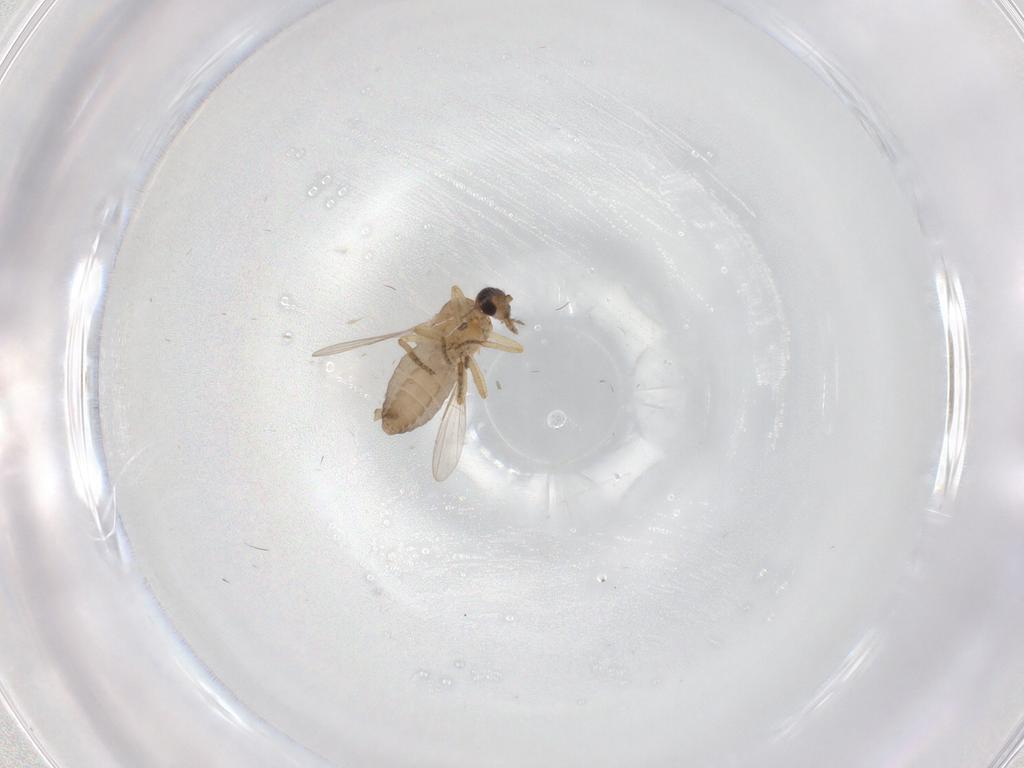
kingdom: Animalia
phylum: Arthropoda
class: Insecta
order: Diptera
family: Ceratopogonidae
